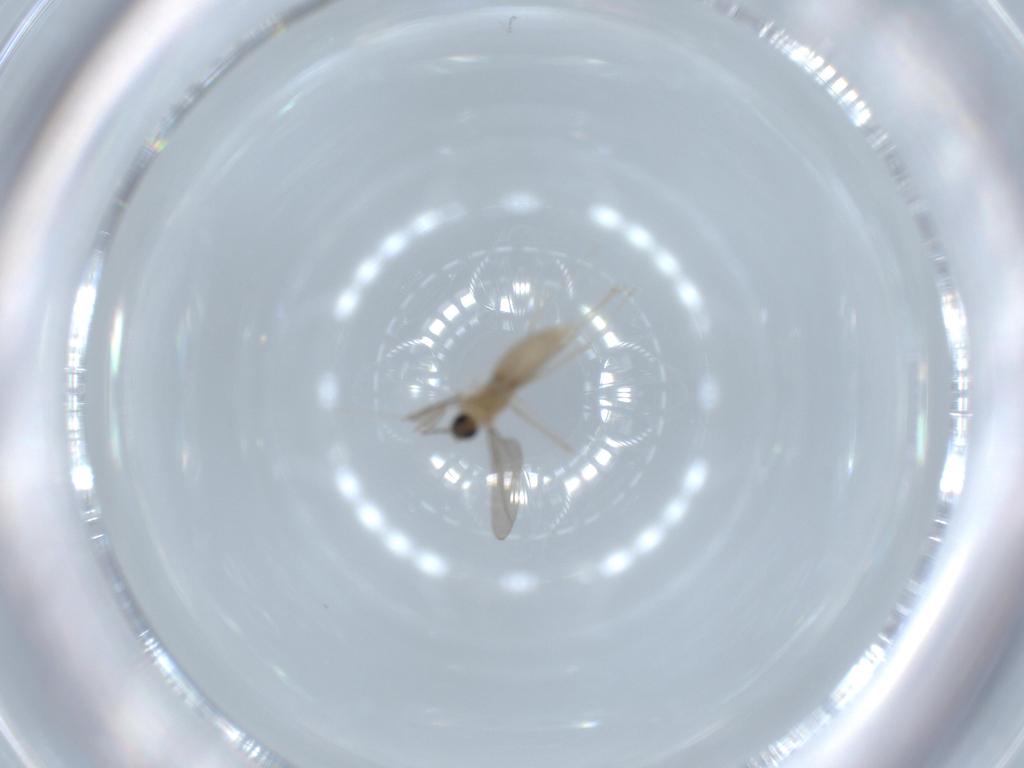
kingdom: Animalia
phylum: Arthropoda
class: Insecta
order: Diptera
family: Cecidomyiidae
